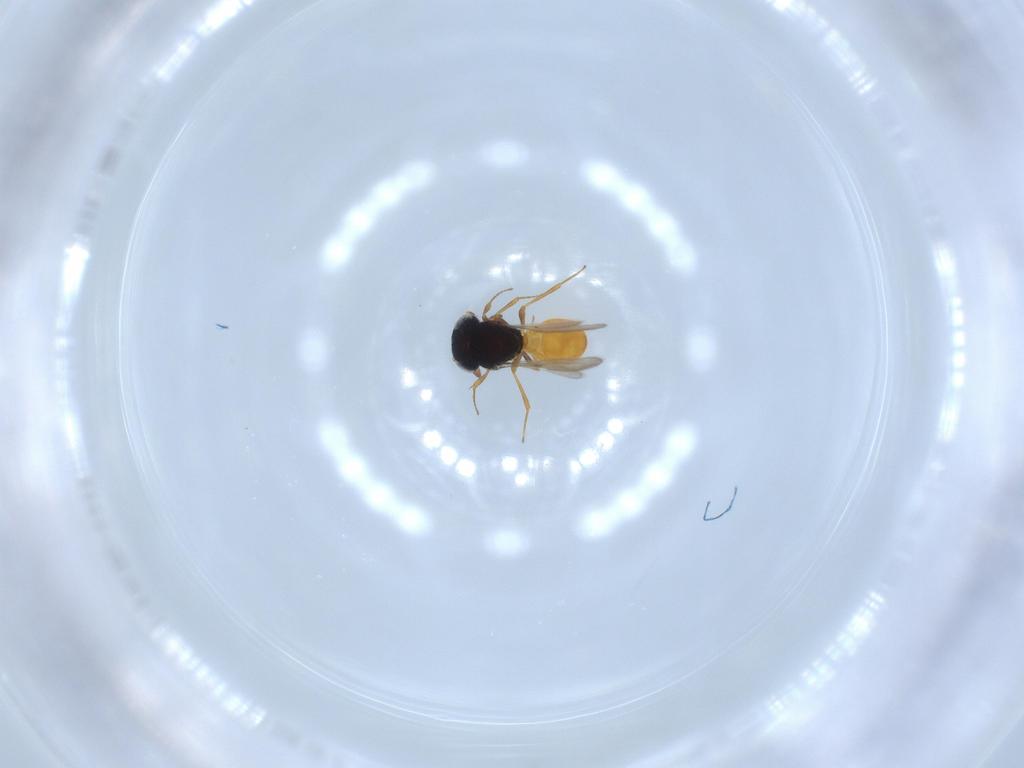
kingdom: Animalia
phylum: Arthropoda
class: Insecta
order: Hymenoptera
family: Scelionidae
